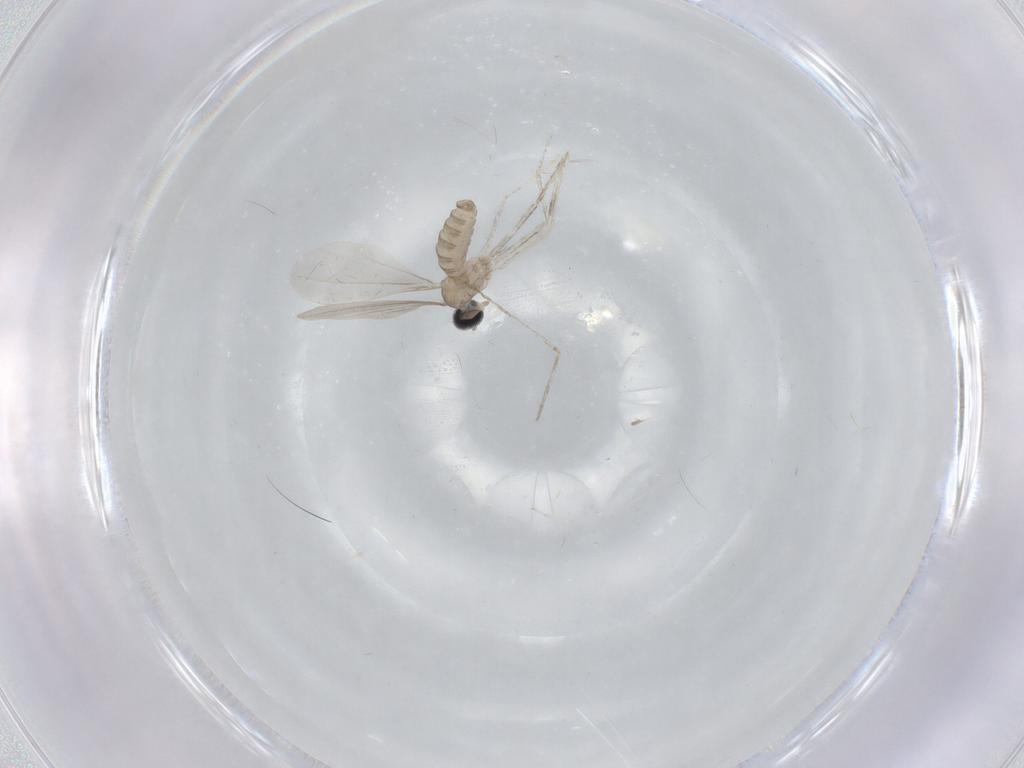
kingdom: Animalia
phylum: Arthropoda
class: Insecta
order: Diptera
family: Cecidomyiidae
